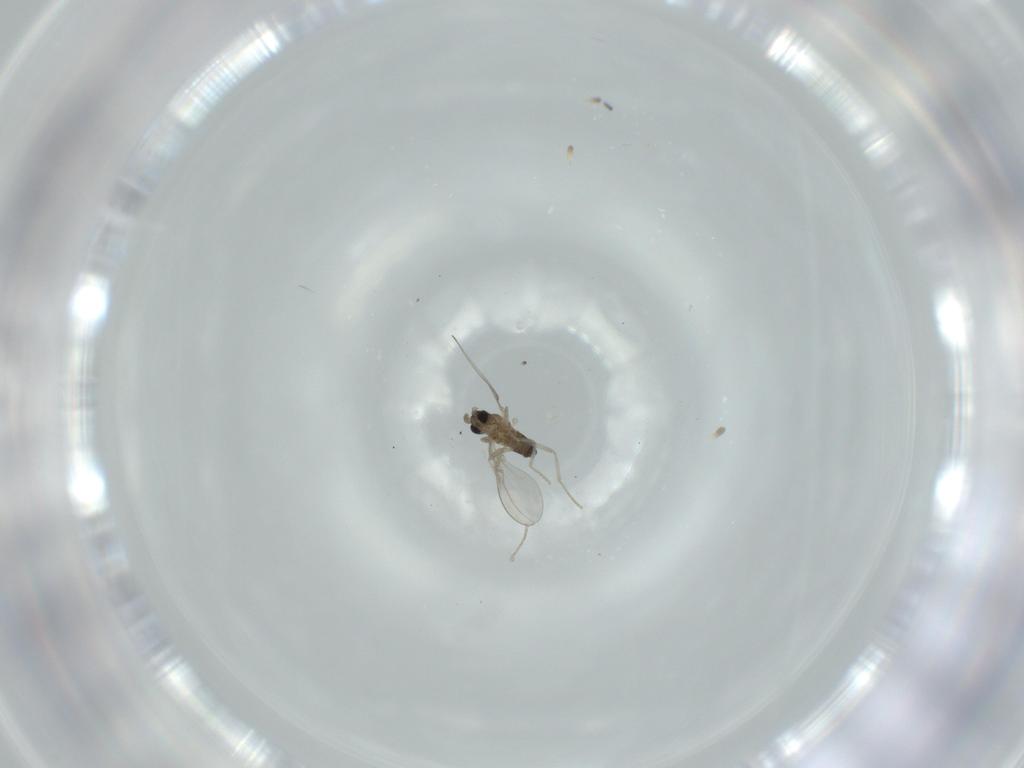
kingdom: Animalia
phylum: Arthropoda
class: Insecta
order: Diptera
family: Cecidomyiidae
